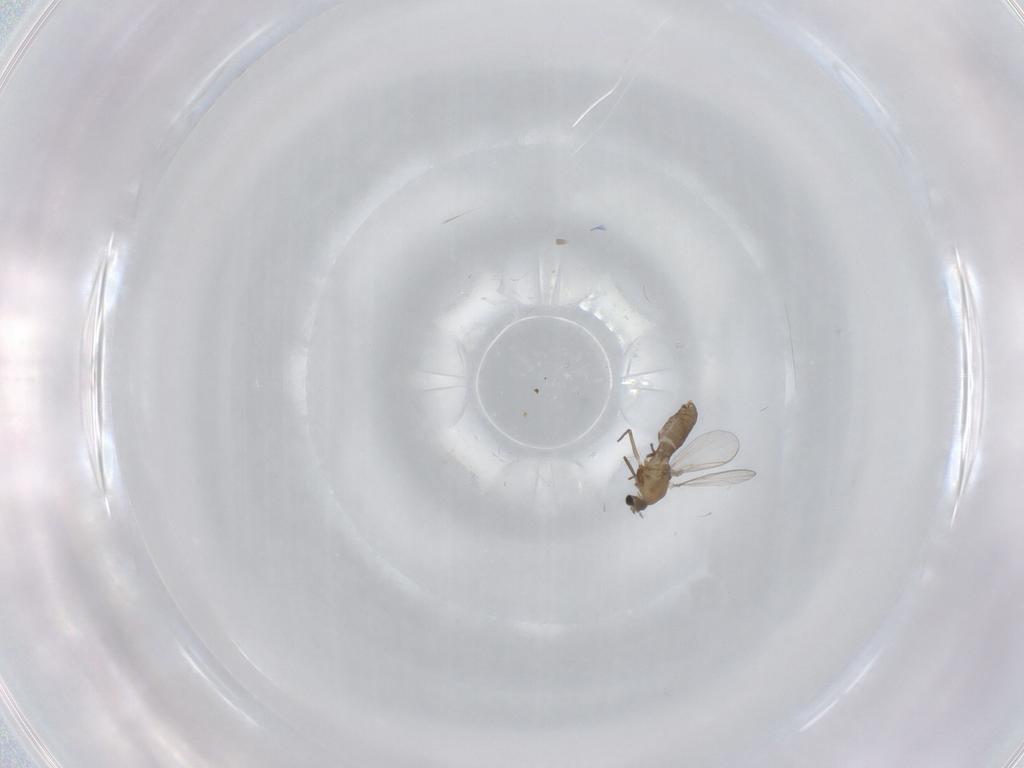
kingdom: Animalia
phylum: Arthropoda
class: Insecta
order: Diptera
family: Chironomidae
